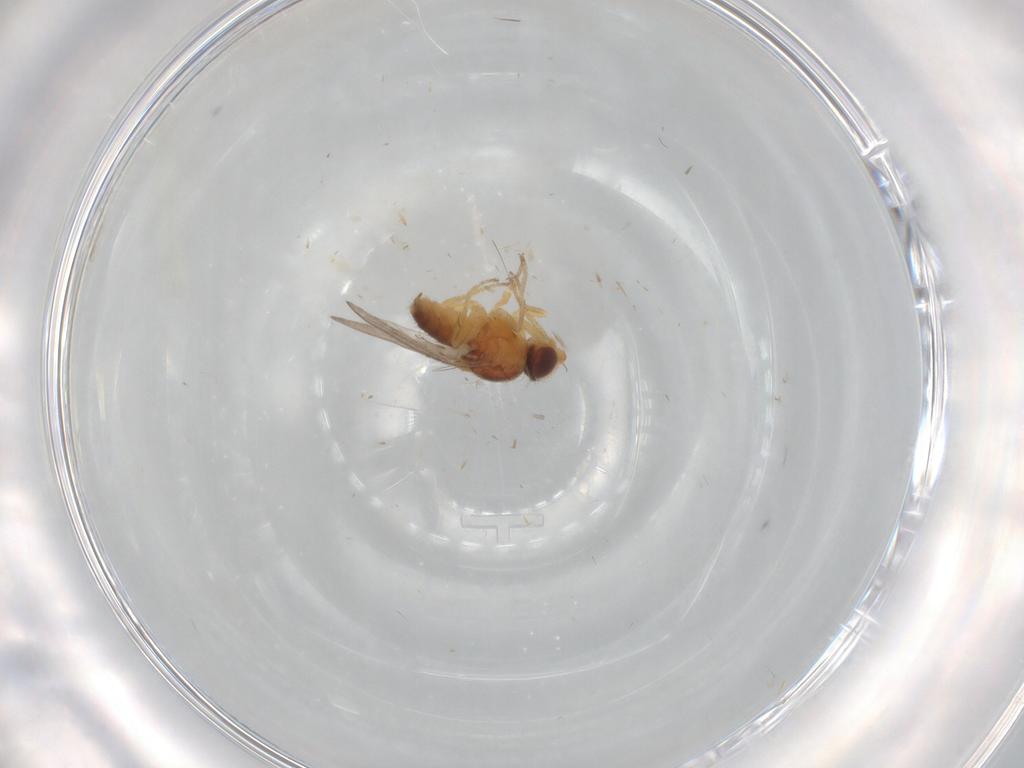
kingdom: Animalia
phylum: Arthropoda
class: Insecta
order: Diptera
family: Chloropidae
